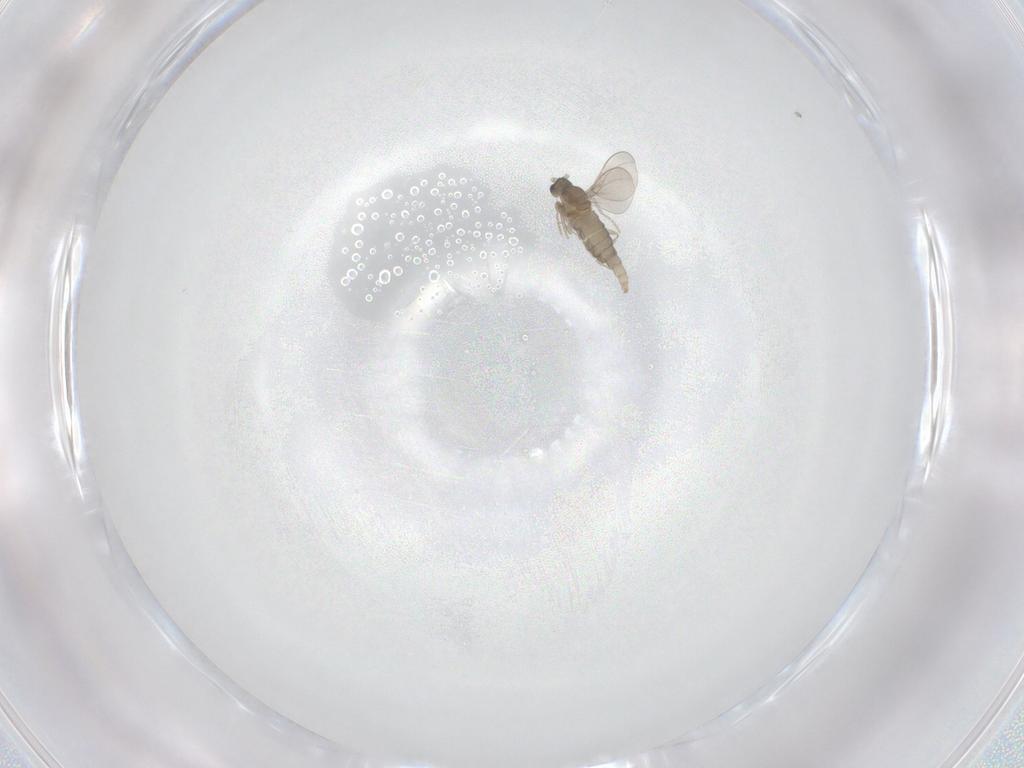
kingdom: Animalia
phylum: Arthropoda
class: Insecta
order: Diptera
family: Cecidomyiidae
